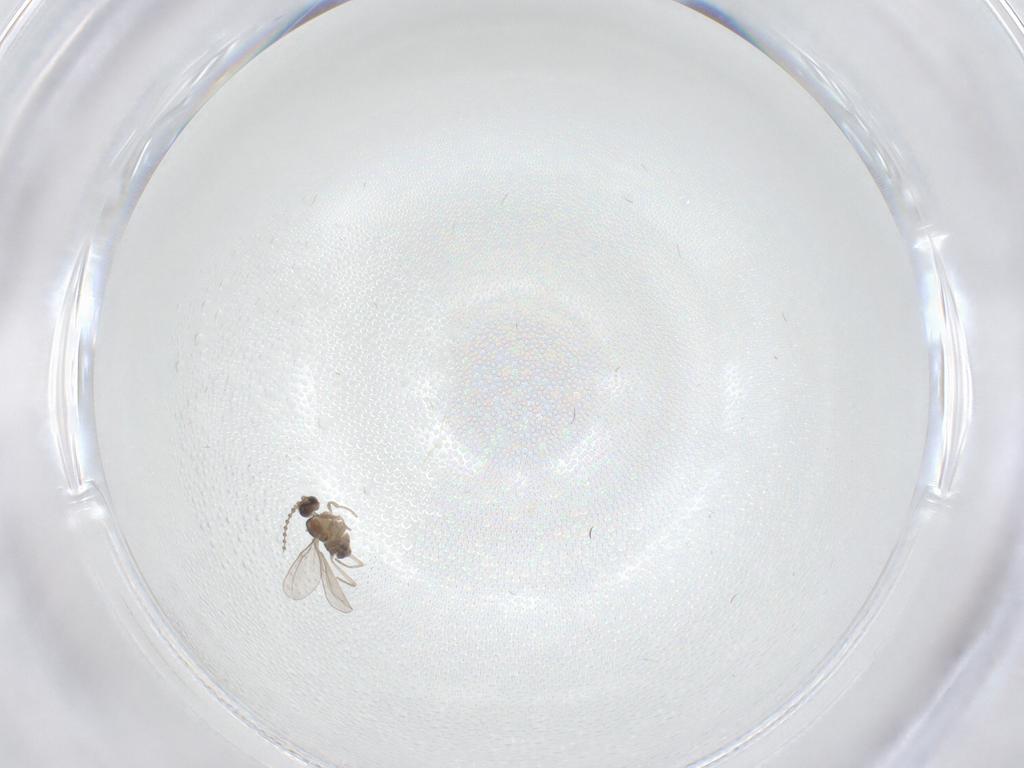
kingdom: Animalia
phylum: Arthropoda
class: Insecta
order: Diptera
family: Cecidomyiidae
